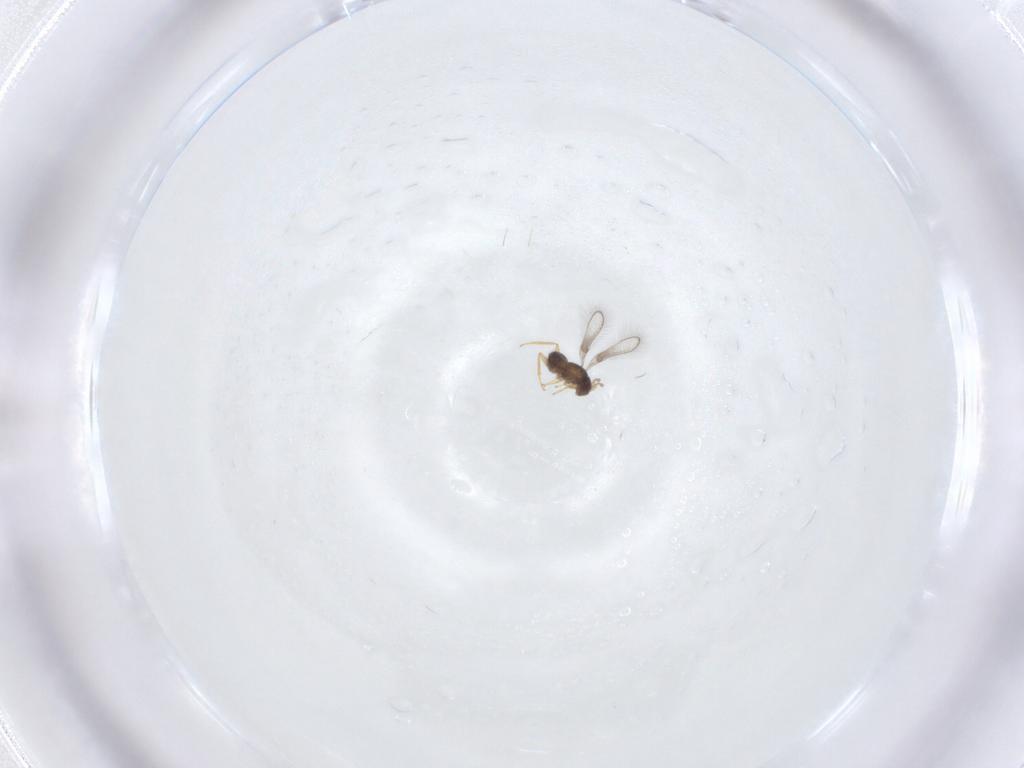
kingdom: Animalia
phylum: Arthropoda
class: Insecta
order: Hymenoptera
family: Mymaridae
